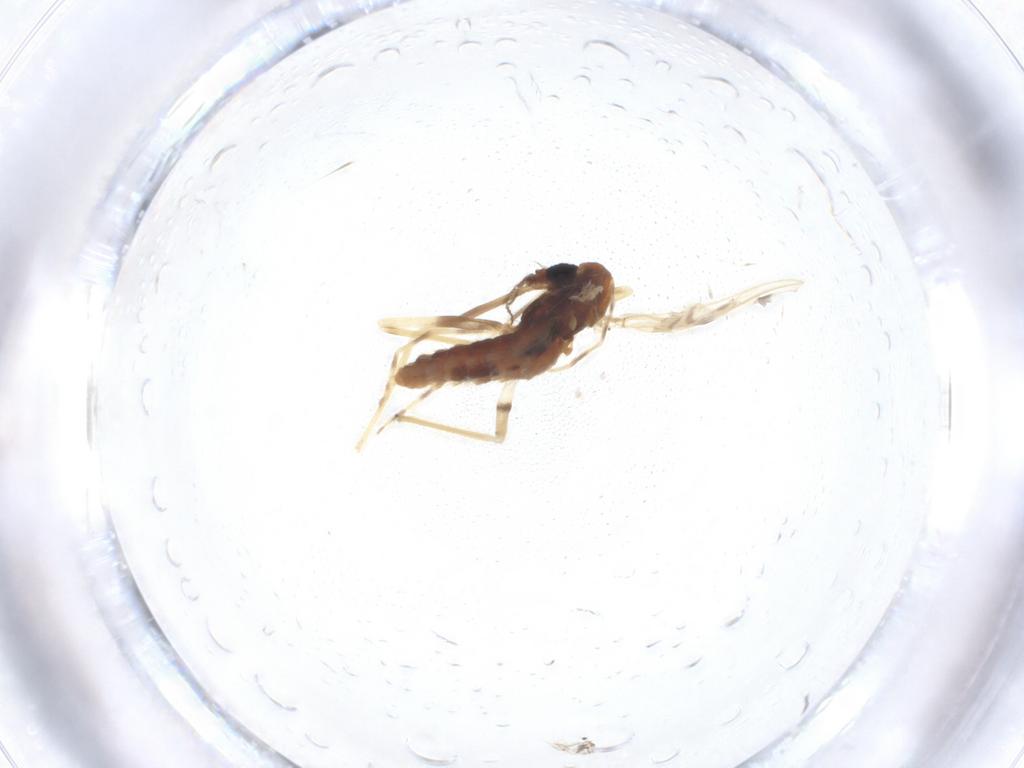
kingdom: Animalia
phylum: Arthropoda
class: Insecta
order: Diptera
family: Chironomidae
